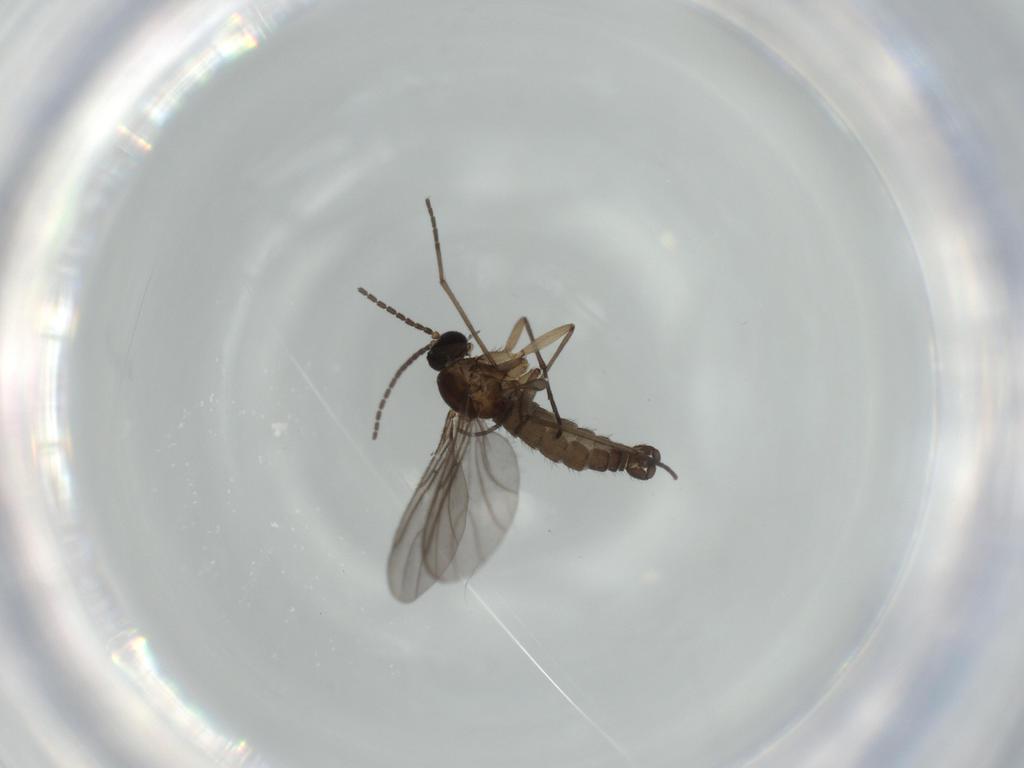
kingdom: Animalia
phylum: Arthropoda
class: Insecta
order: Diptera
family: Sciaridae
